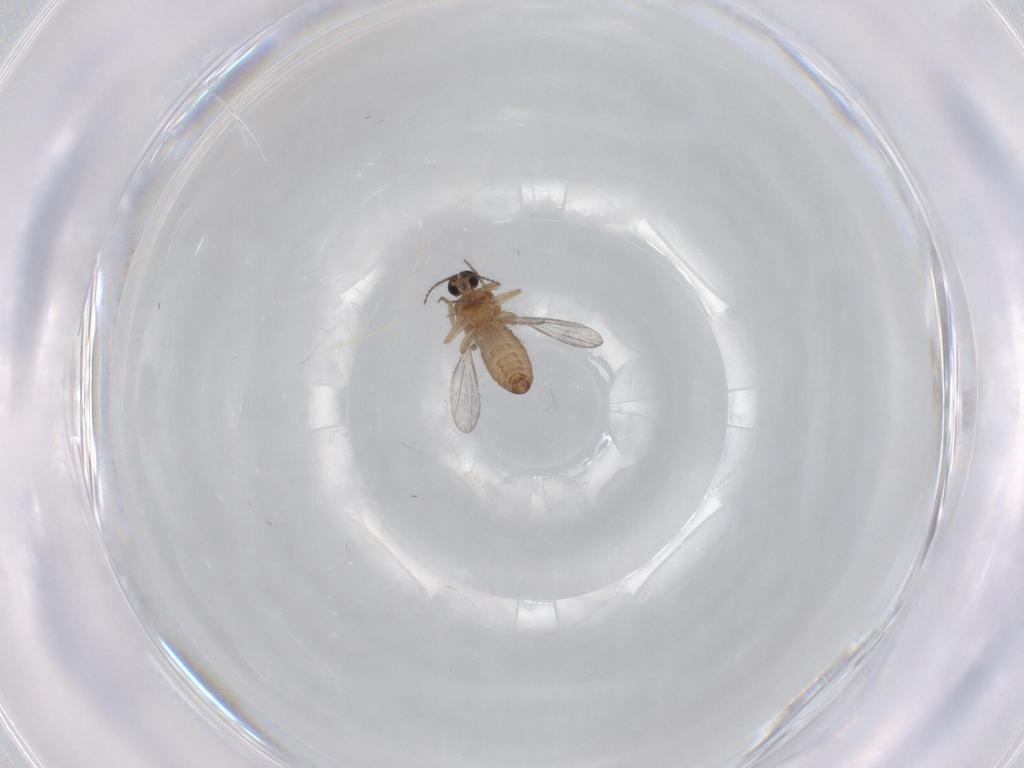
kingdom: Animalia
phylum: Arthropoda
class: Insecta
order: Diptera
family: Ceratopogonidae
